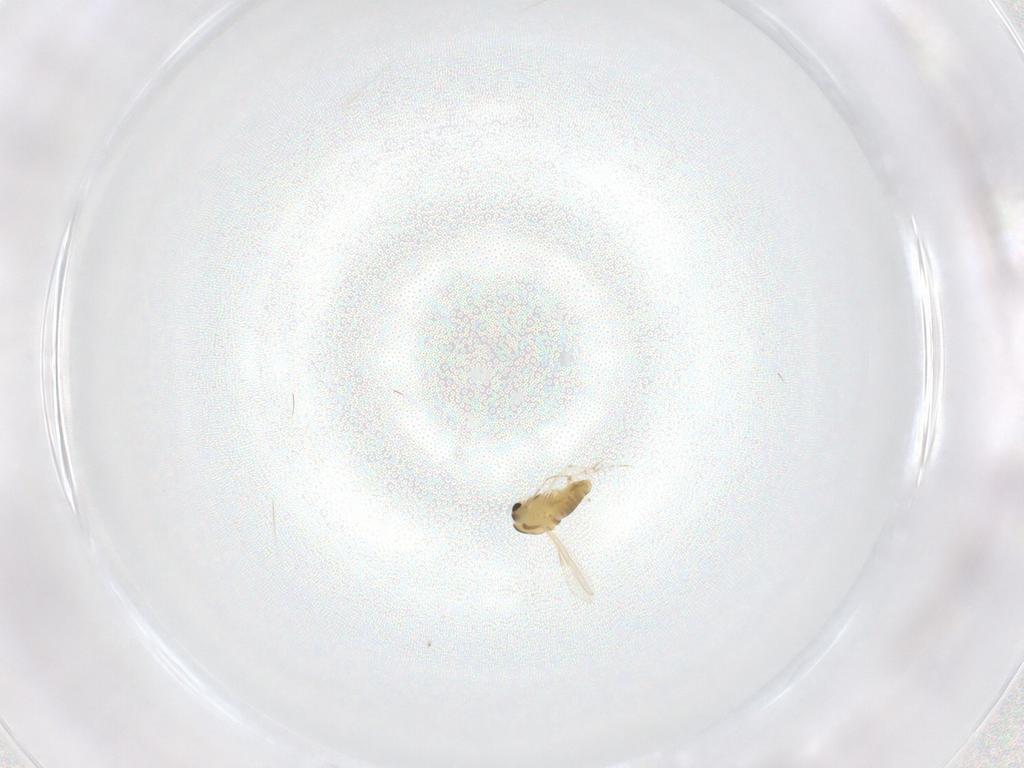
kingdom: Animalia
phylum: Arthropoda
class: Insecta
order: Diptera
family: Chironomidae
